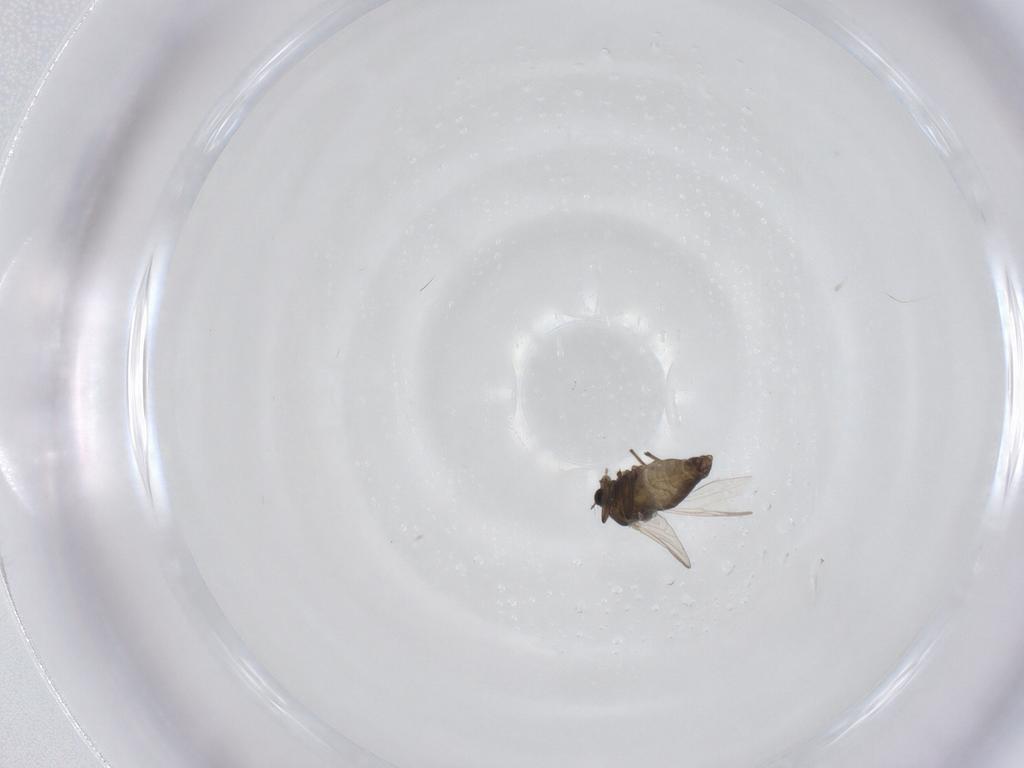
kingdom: Animalia
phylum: Arthropoda
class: Insecta
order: Diptera
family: Chironomidae
